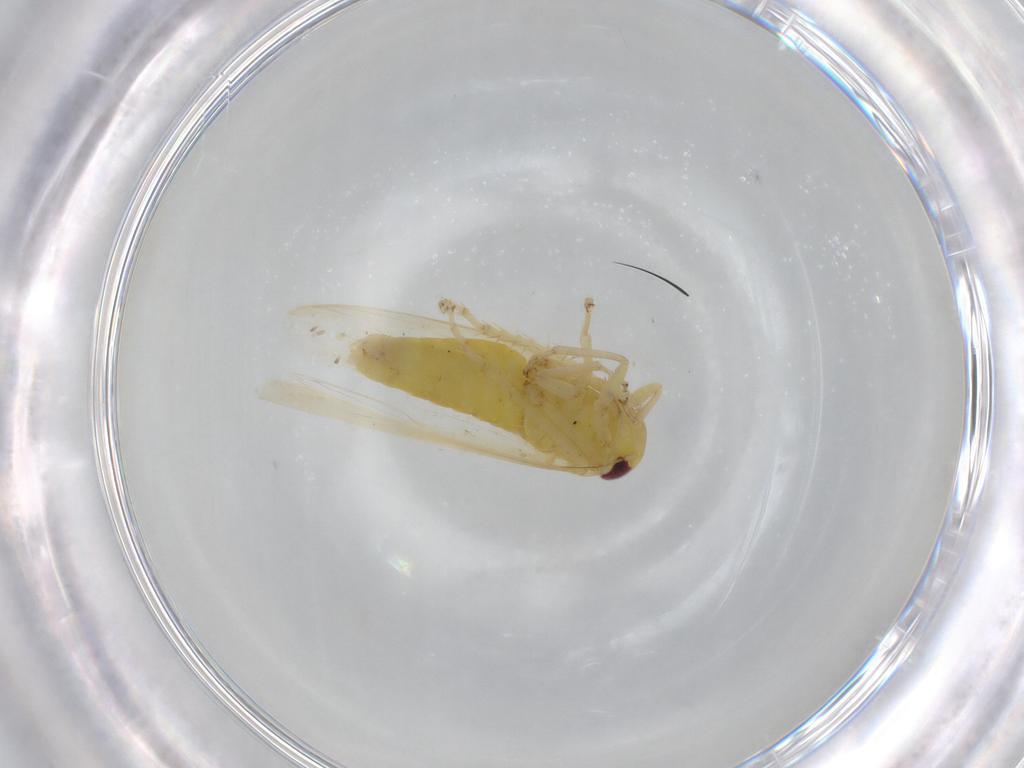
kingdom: Animalia
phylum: Arthropoda
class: Insecta
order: Hemiptera
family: Cicadellidae
